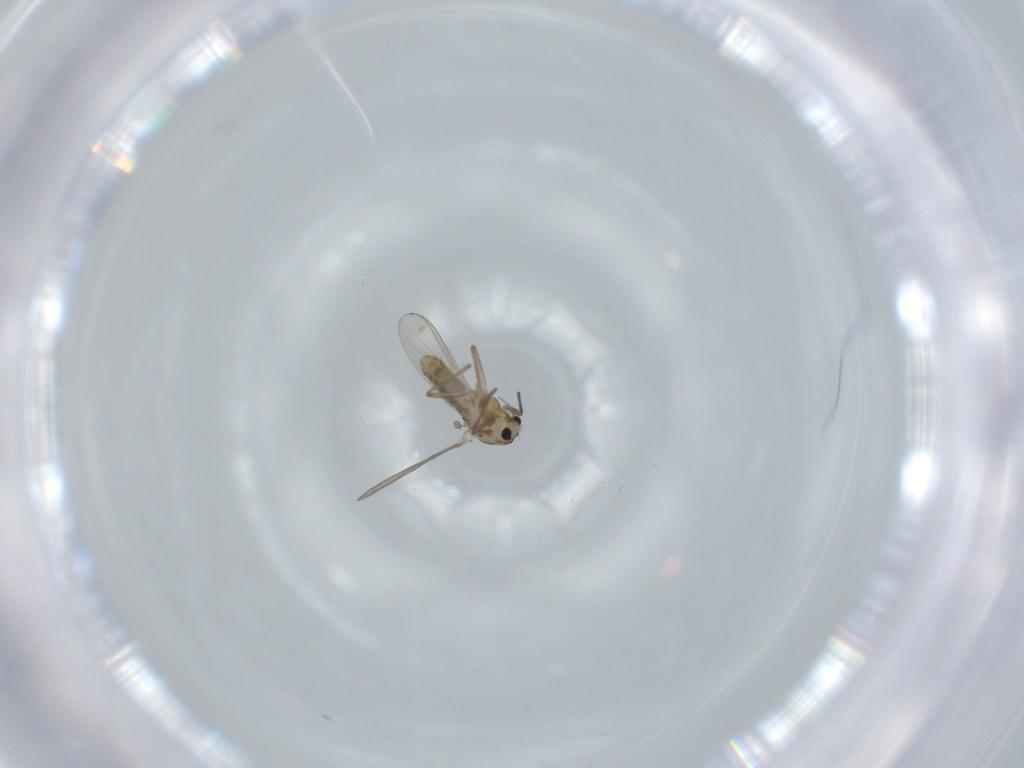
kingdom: Animalia
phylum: Arthropoda
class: Insecta
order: Diptera
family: Chironomidae
